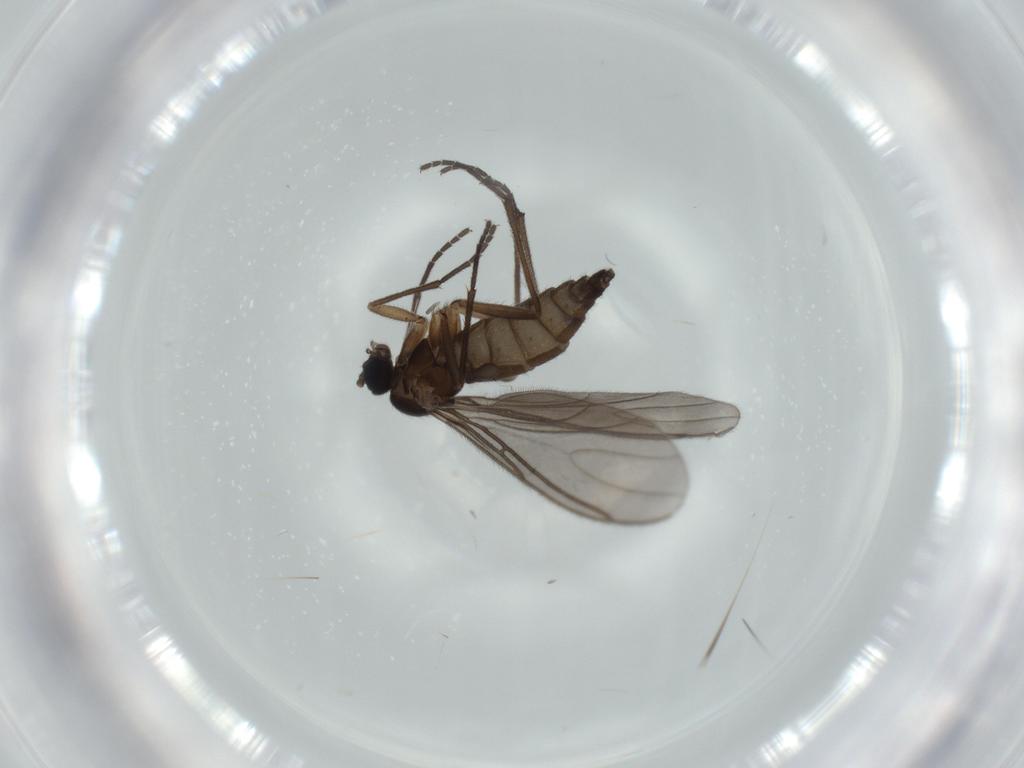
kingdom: Animalia
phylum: Arthropoda
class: Insecta
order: Diptera
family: Sciaridae
